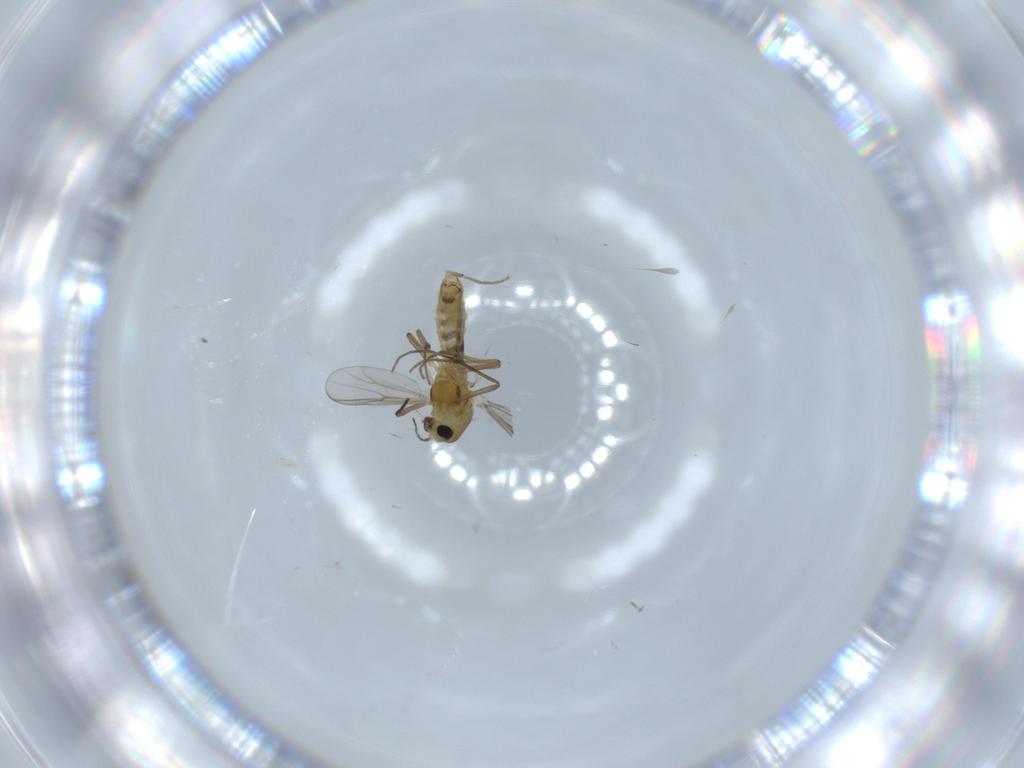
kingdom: Animalia
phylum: Arthropoda
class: Insecta
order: Diptera
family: Chironomidae
